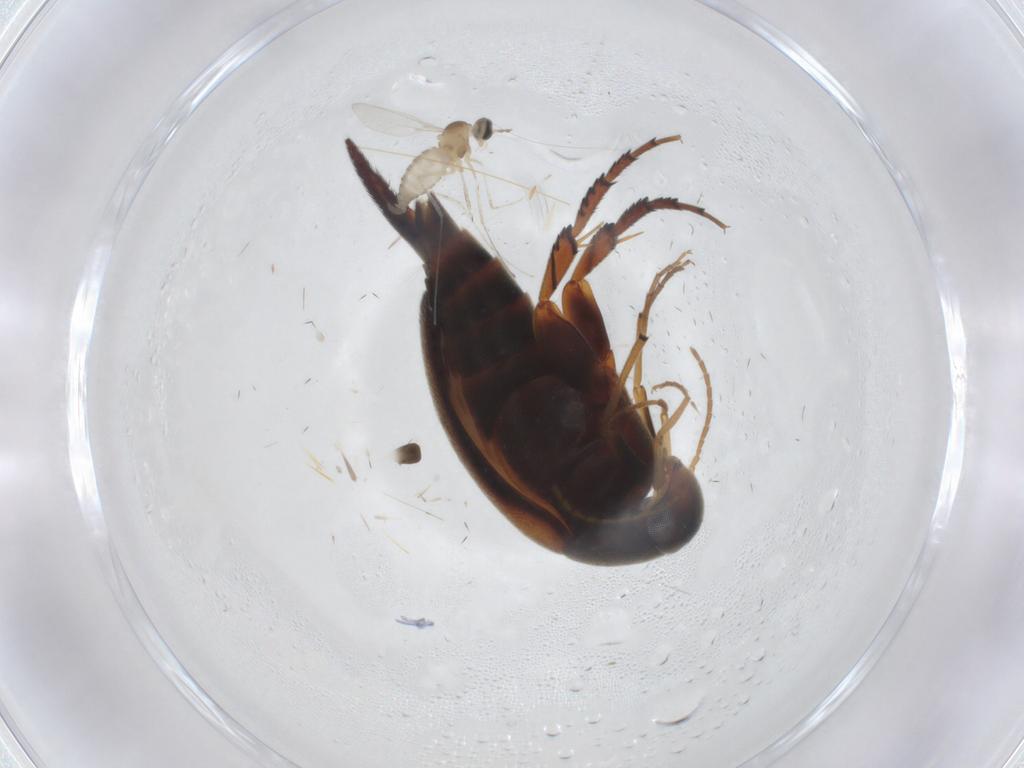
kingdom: Animalia
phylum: Arthropoda
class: Insecta
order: Coleoptera
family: Mordellidae
